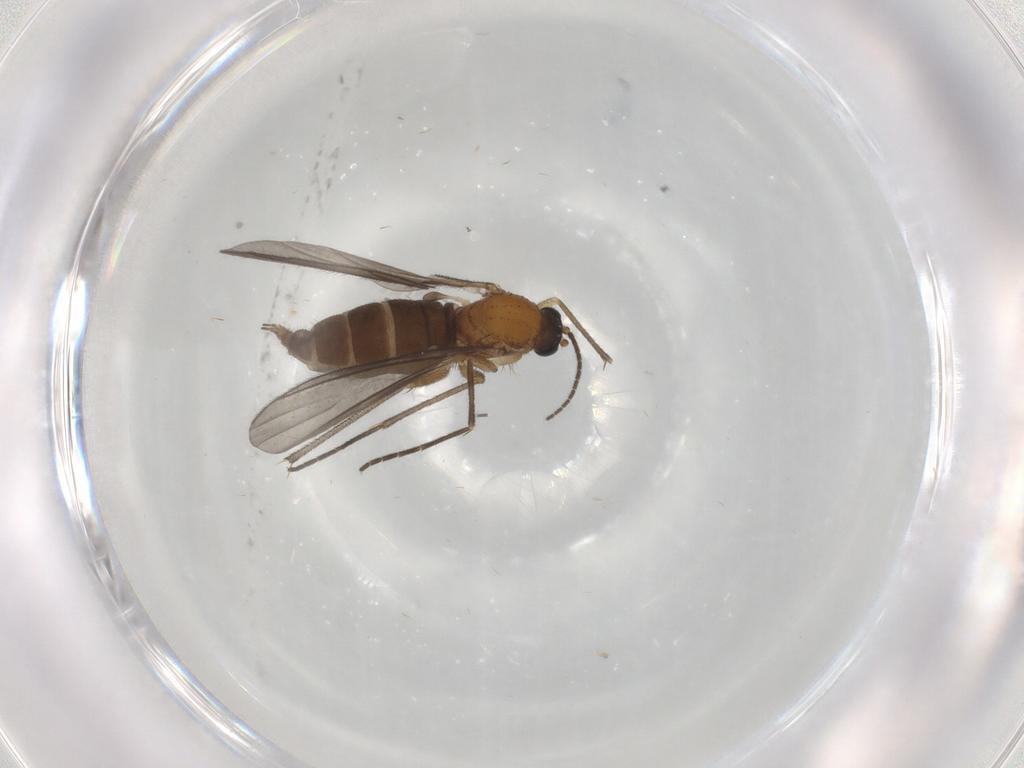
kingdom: Animalia
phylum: Arthropoda
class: Insecta
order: Diptera
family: Sciaridae
